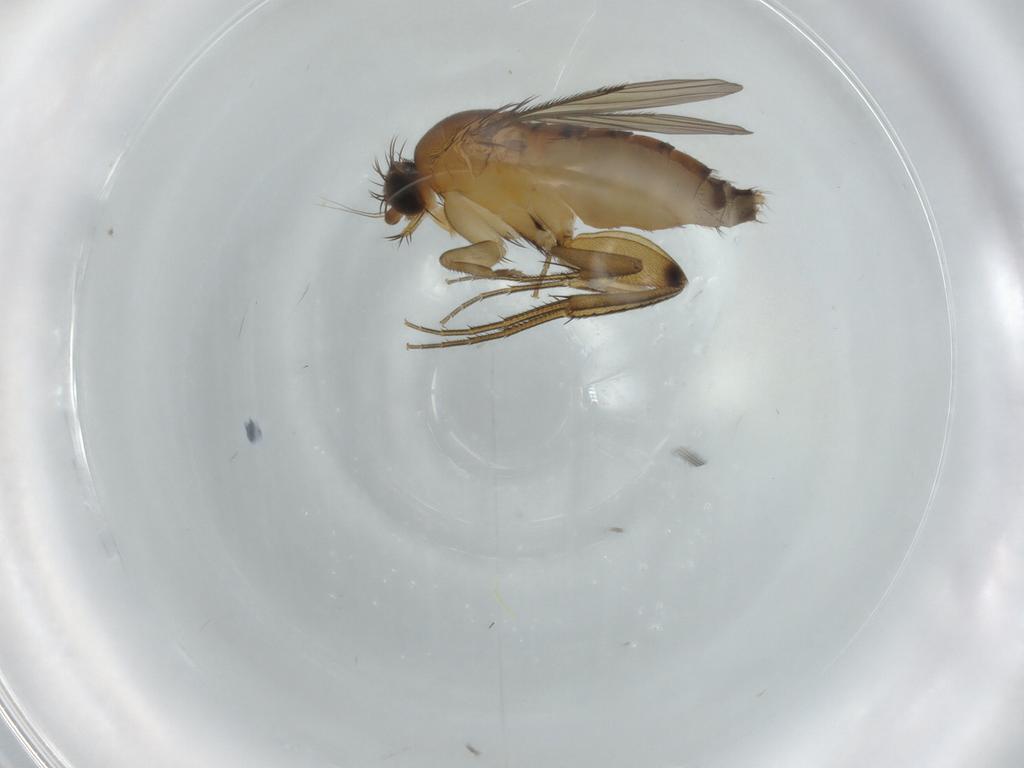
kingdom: Animalia
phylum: Arthropoda
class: Insecta
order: Diptera
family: Phoridae
